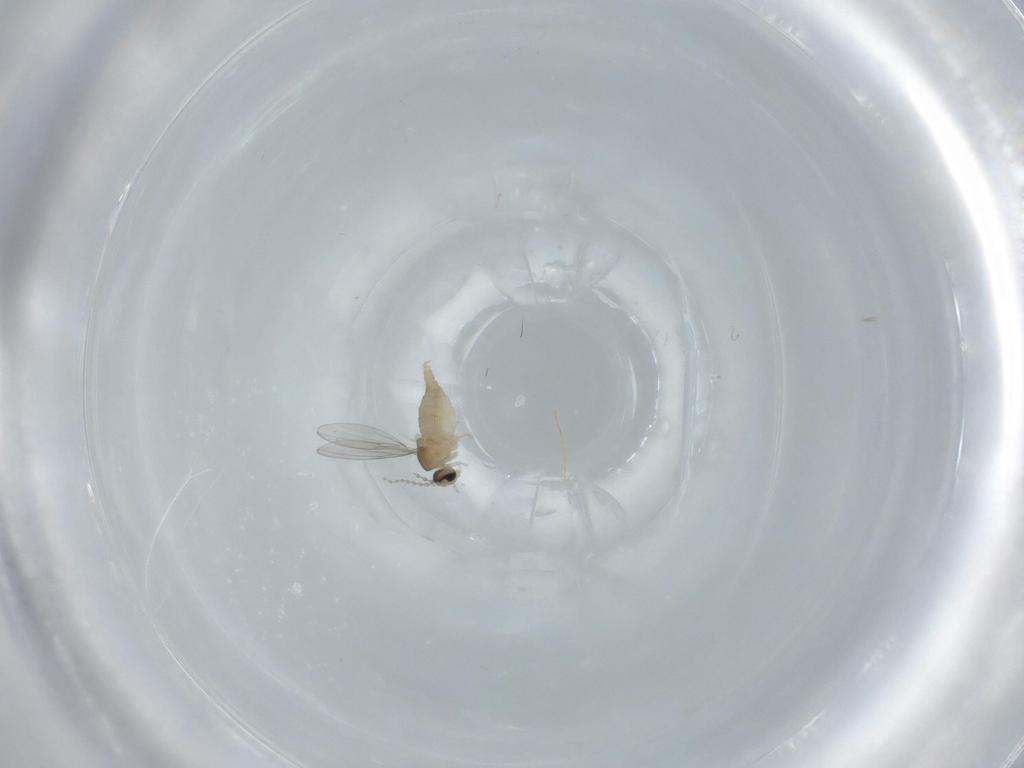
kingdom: Animalia
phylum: Arthropoda
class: Insecta
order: Diptera
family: Cecidomyiidae
